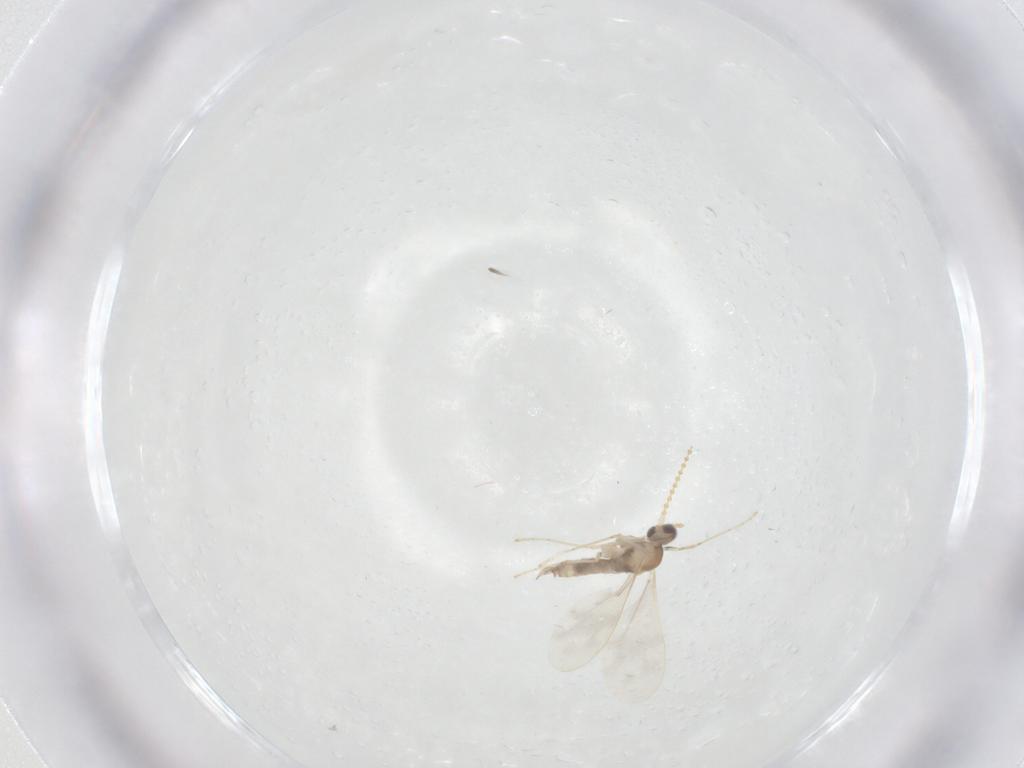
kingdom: Animalia
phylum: Arthropoda
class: Insecta
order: Diptera
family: Cecidomyiidae
